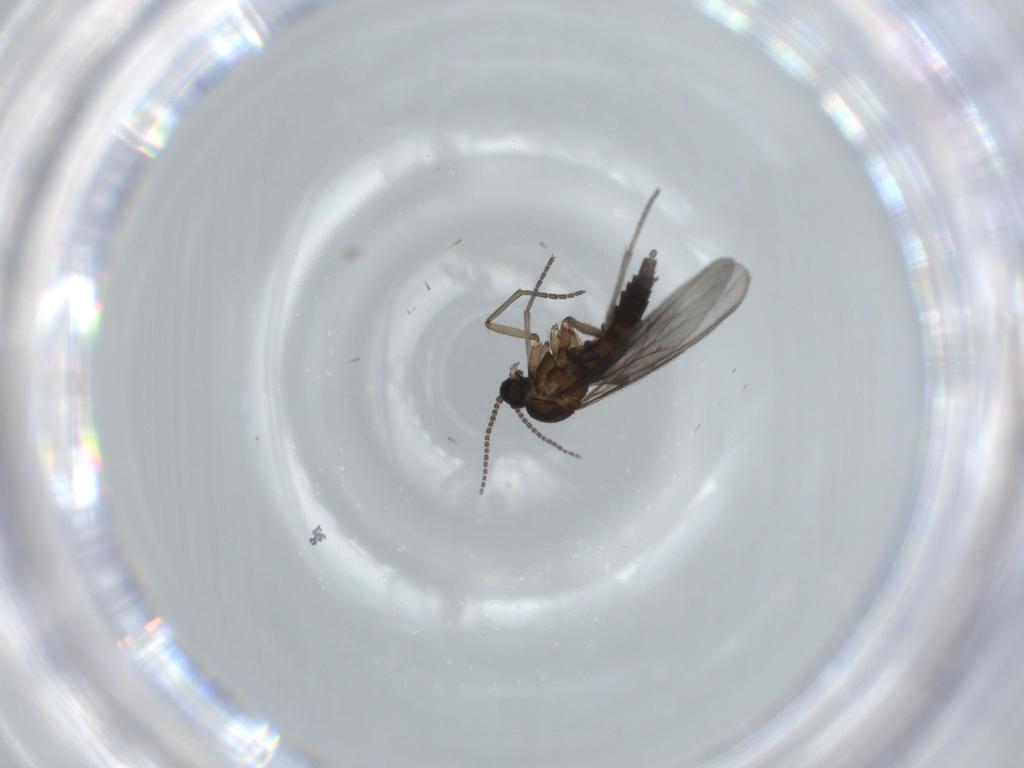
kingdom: Animalia
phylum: Arthropoda
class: Insecta
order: Diptera
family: Sciaridae
